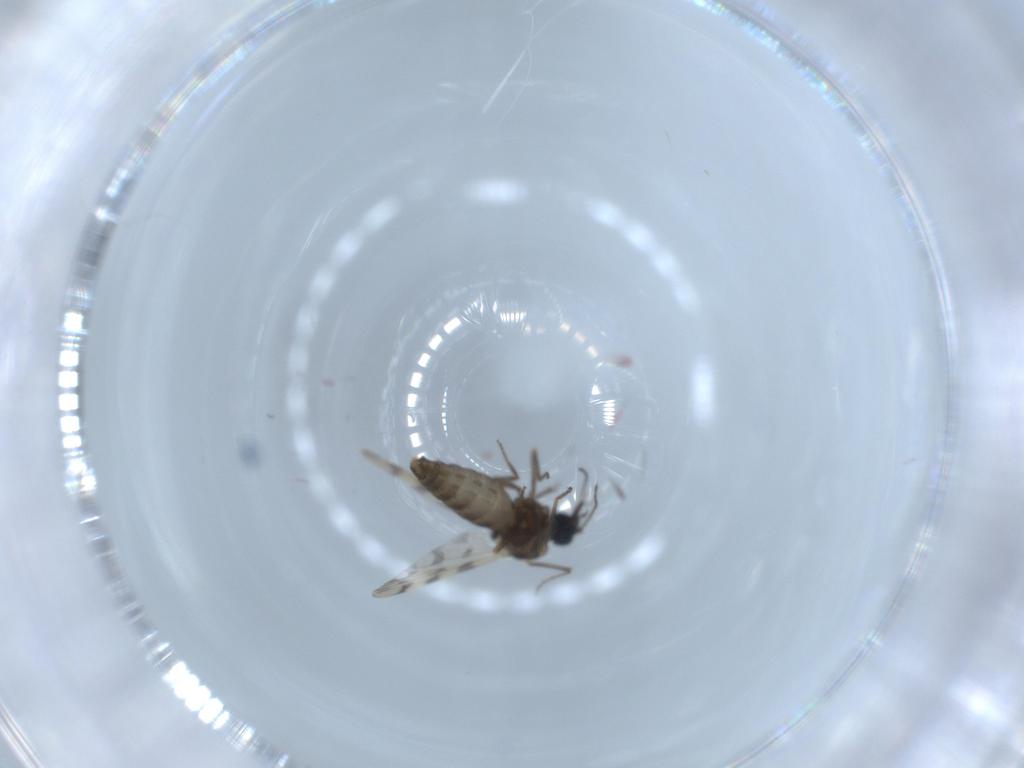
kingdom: Animalia
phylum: Arthropoda
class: Insecta
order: Diptera
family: Ceratopogonidae
